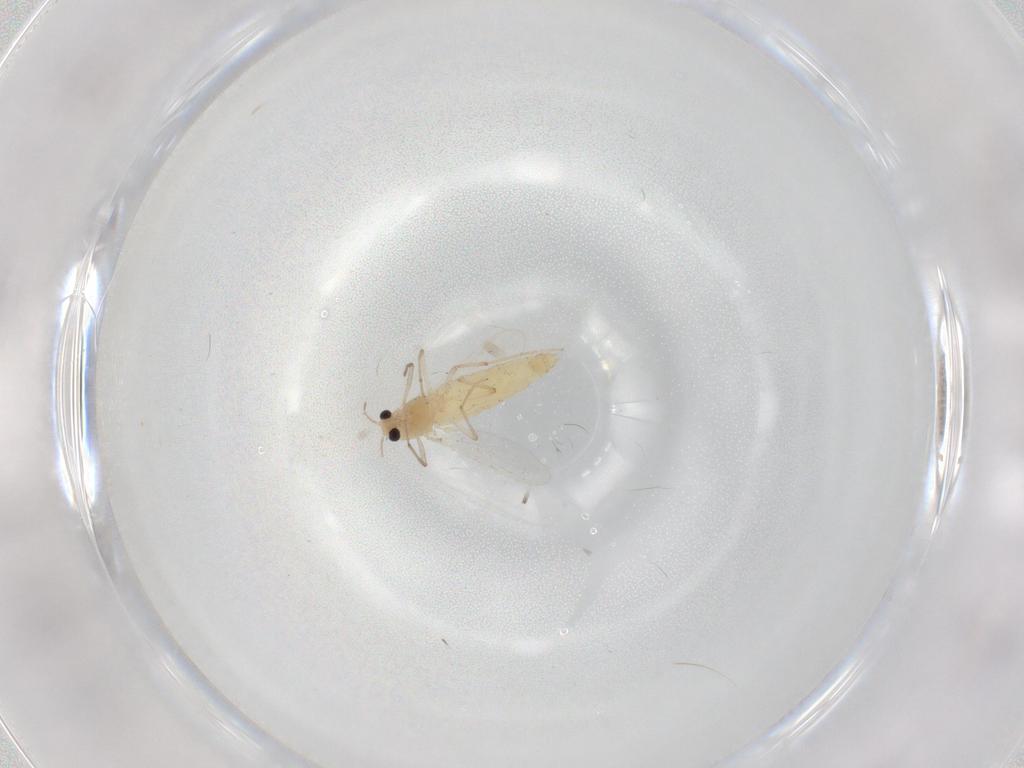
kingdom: Animalia
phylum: Arthropoda
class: Insecta
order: Diptera
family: Chironomidae
